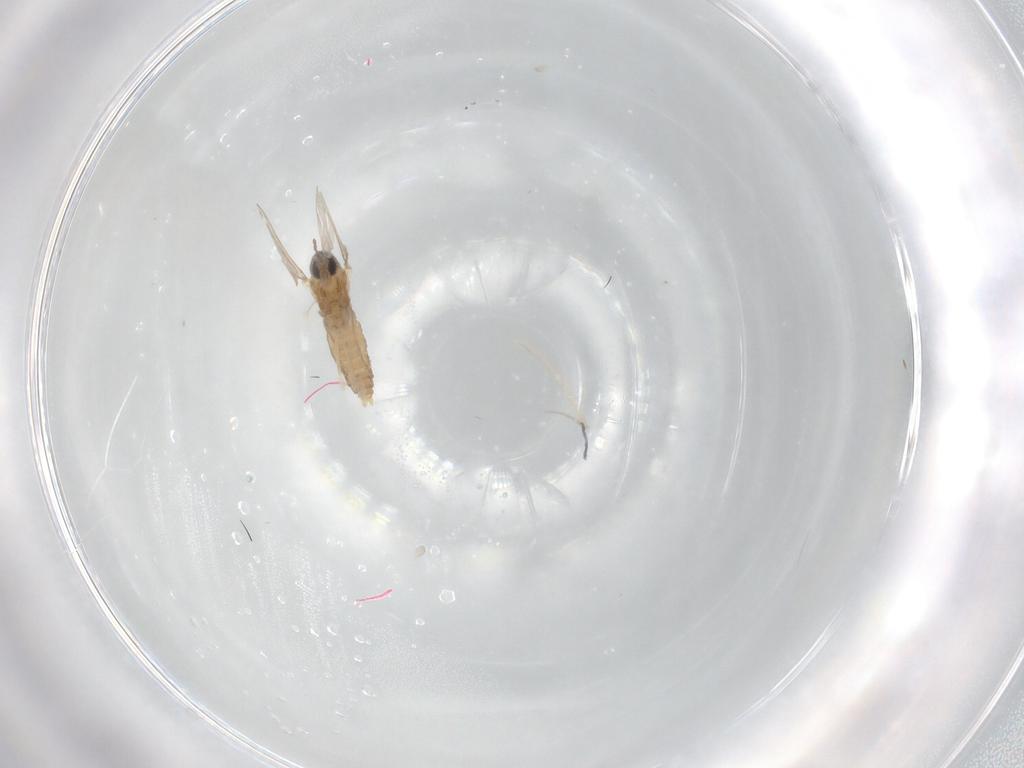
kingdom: Animalia
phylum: Arthropoda
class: Insecta
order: Diptera
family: Cecidomyiidae
